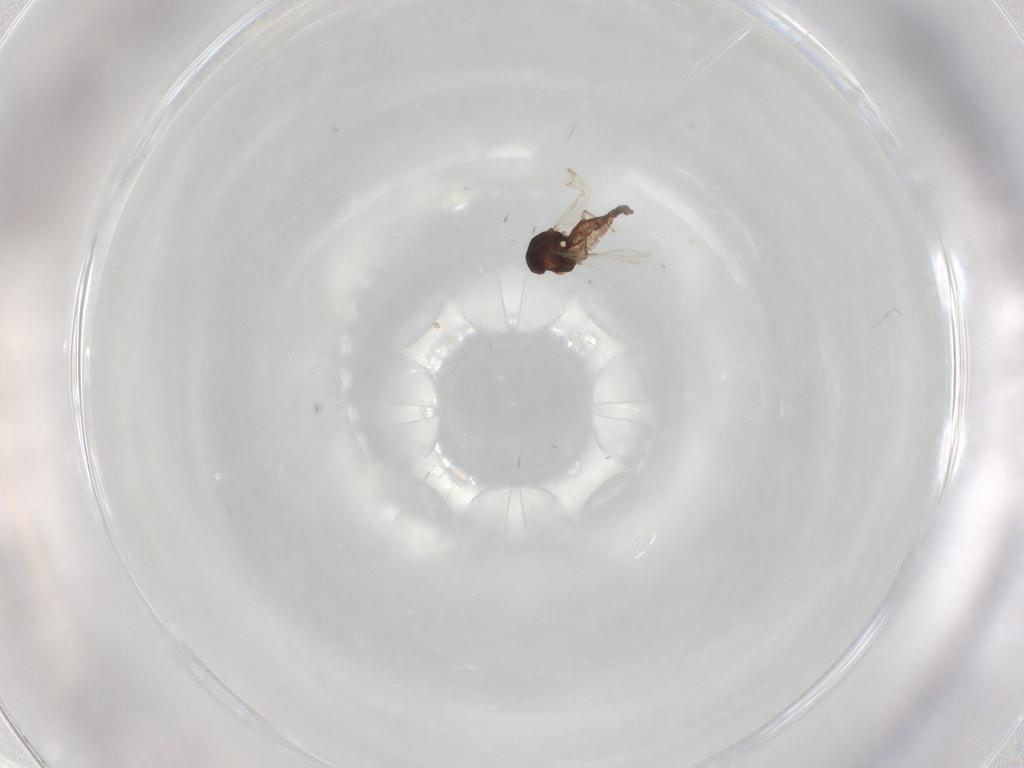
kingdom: Animalia
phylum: Arthropoda
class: Insecta
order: Diptera
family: Ceratopogonidae
